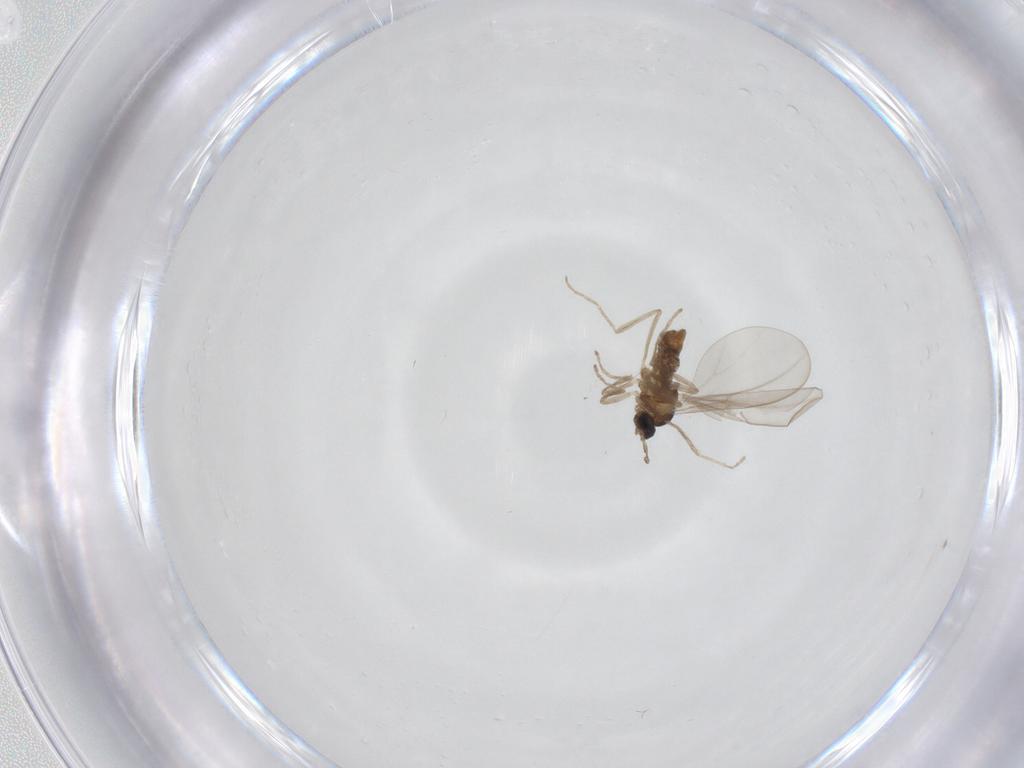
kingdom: Animalia
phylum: Arthropoda
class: Insecta
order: Diptera
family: Cecidomyiidae
